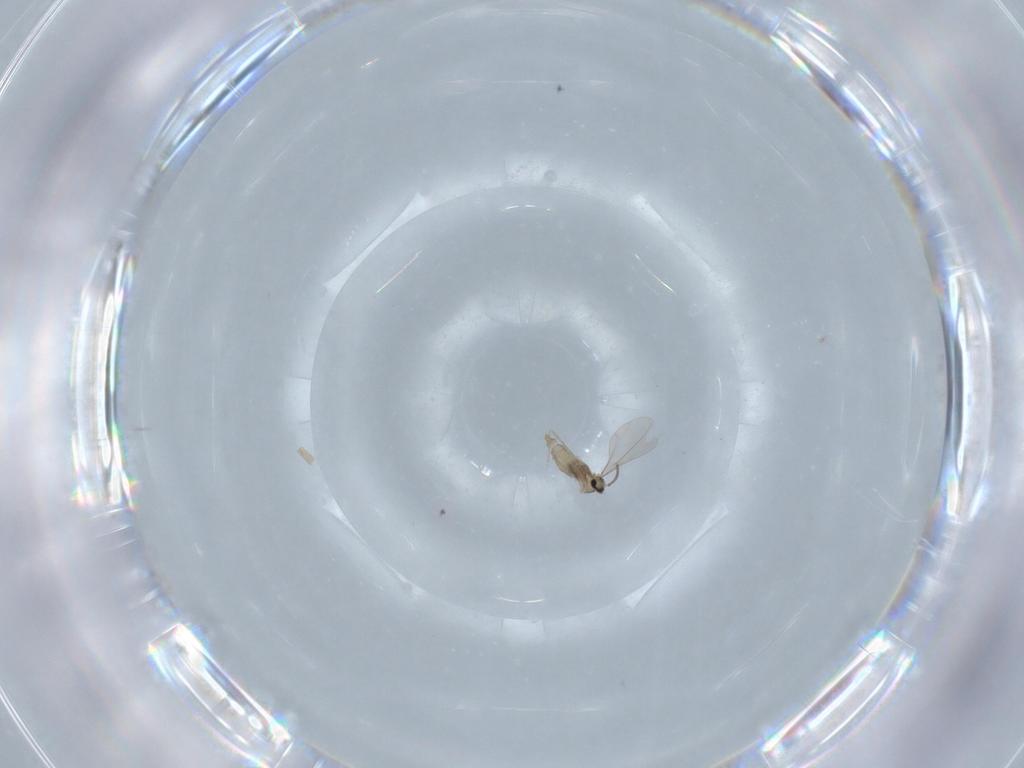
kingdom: Animalia
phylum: Arthropoda
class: Insecta
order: Diptera
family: Cecidomyiidae
